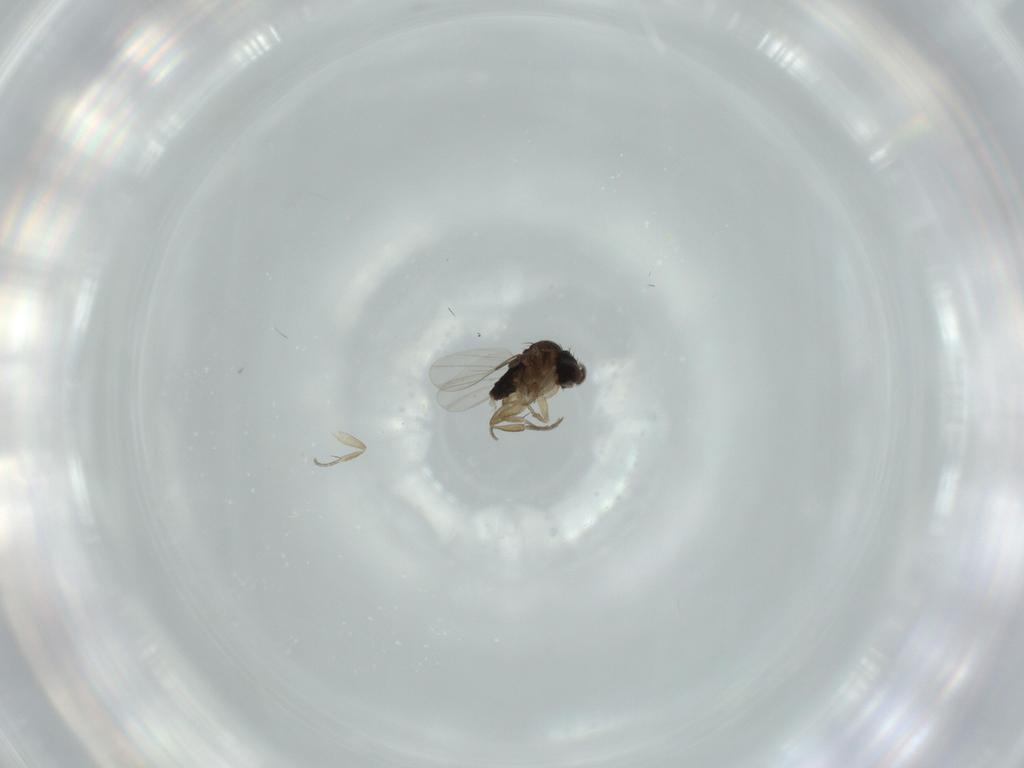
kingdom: Animalia
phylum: Arthropoda
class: Insecta
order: Diptera
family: Phoridae
